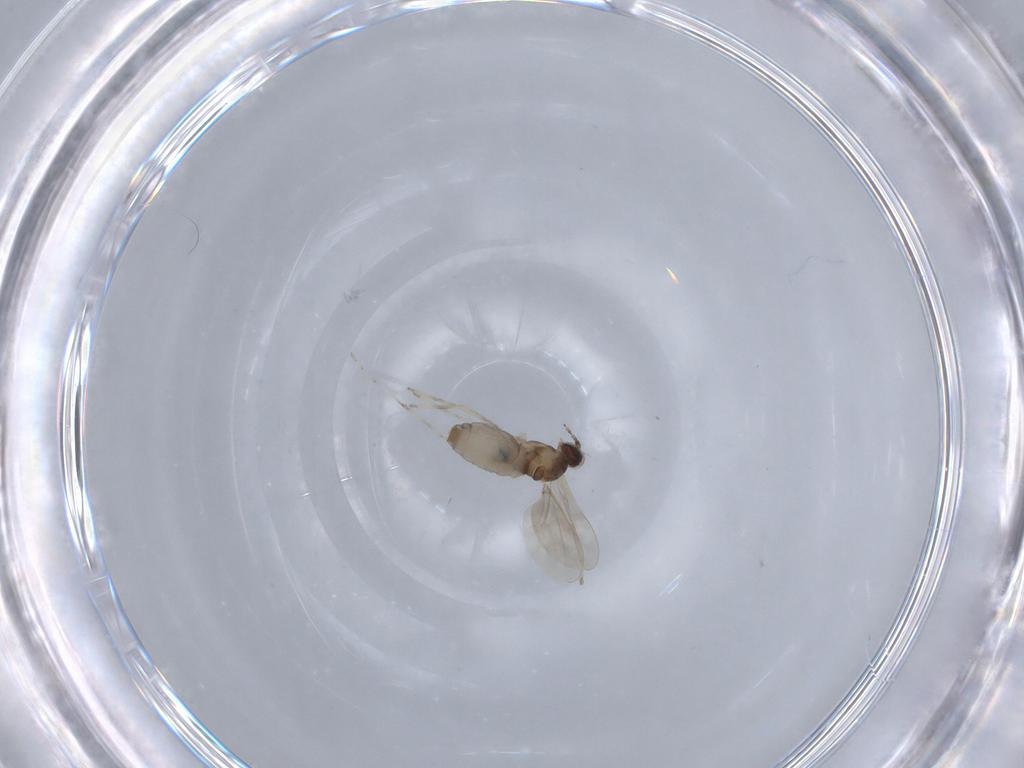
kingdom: Animalia
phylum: Arthropoda
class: Insecta
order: Diptera
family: Cecidomyiidae
